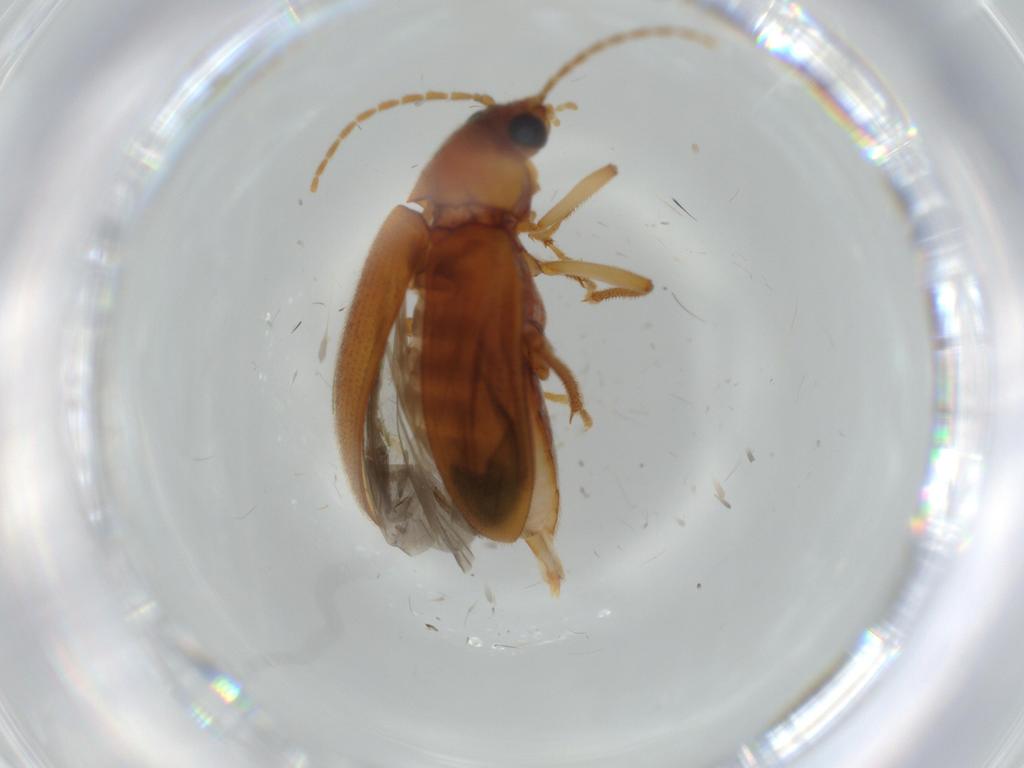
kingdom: Animalia
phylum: Arthropoda
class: Insecta
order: Coleoptera
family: Ptilodactylidae
